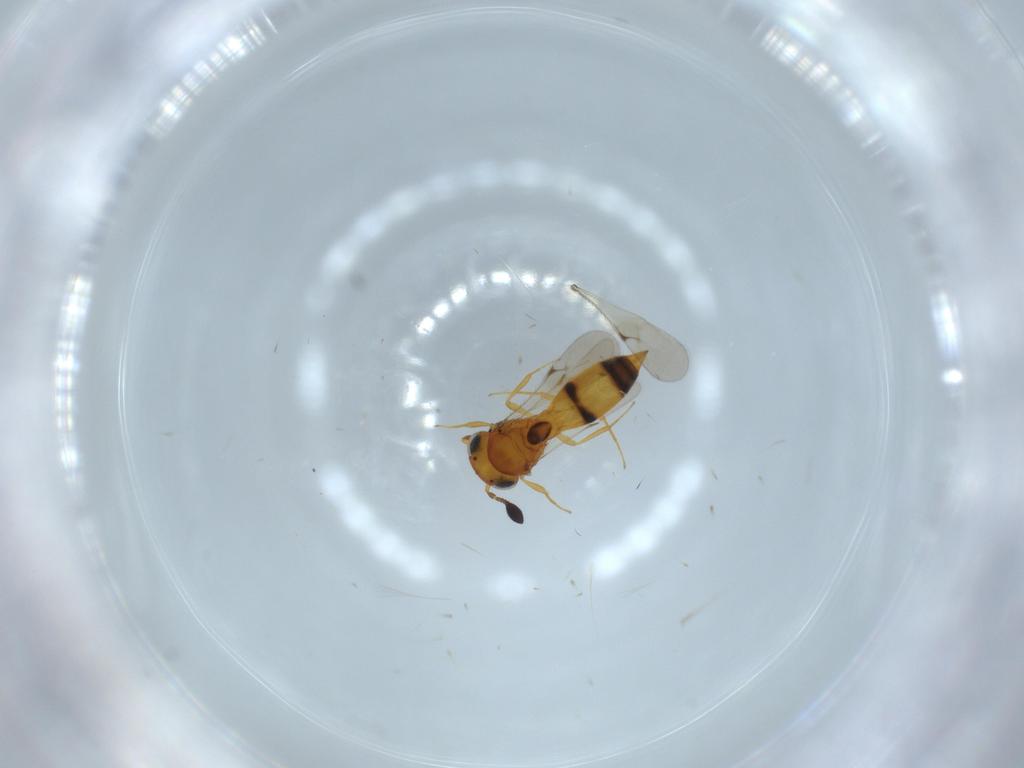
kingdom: Animalia
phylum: Arthropoda
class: Insecta
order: Hymenoptera
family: Scelionidae
